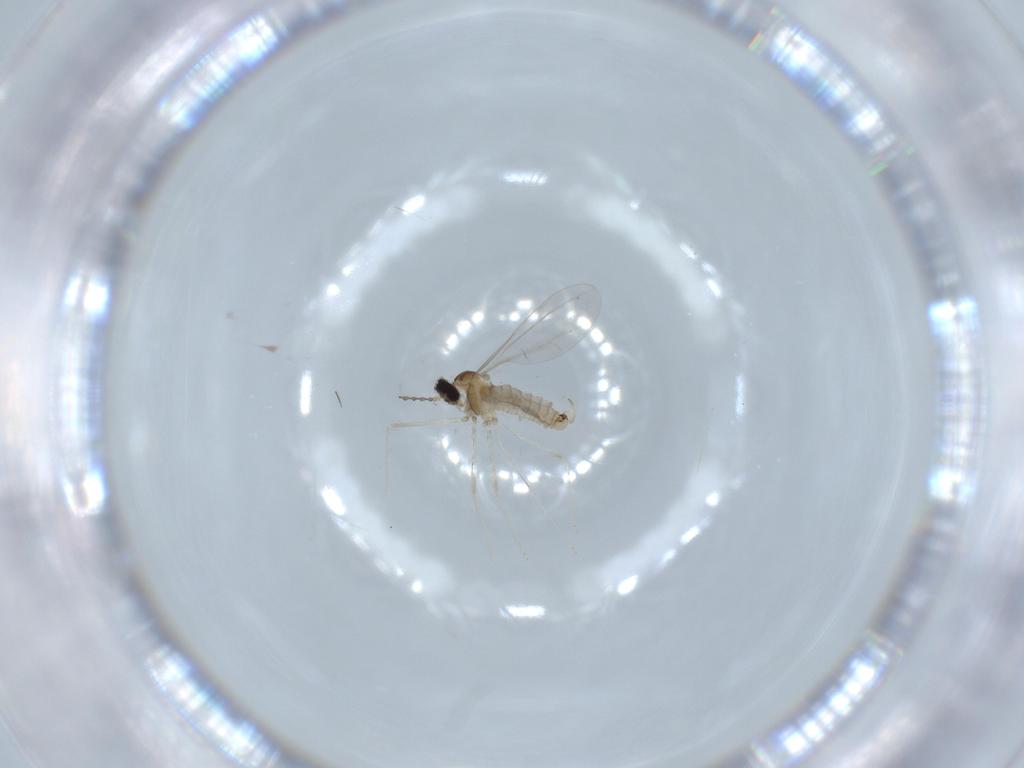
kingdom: Animalia
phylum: Arthropoda
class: Insecta
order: Diptera
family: Cecidomyiidae
